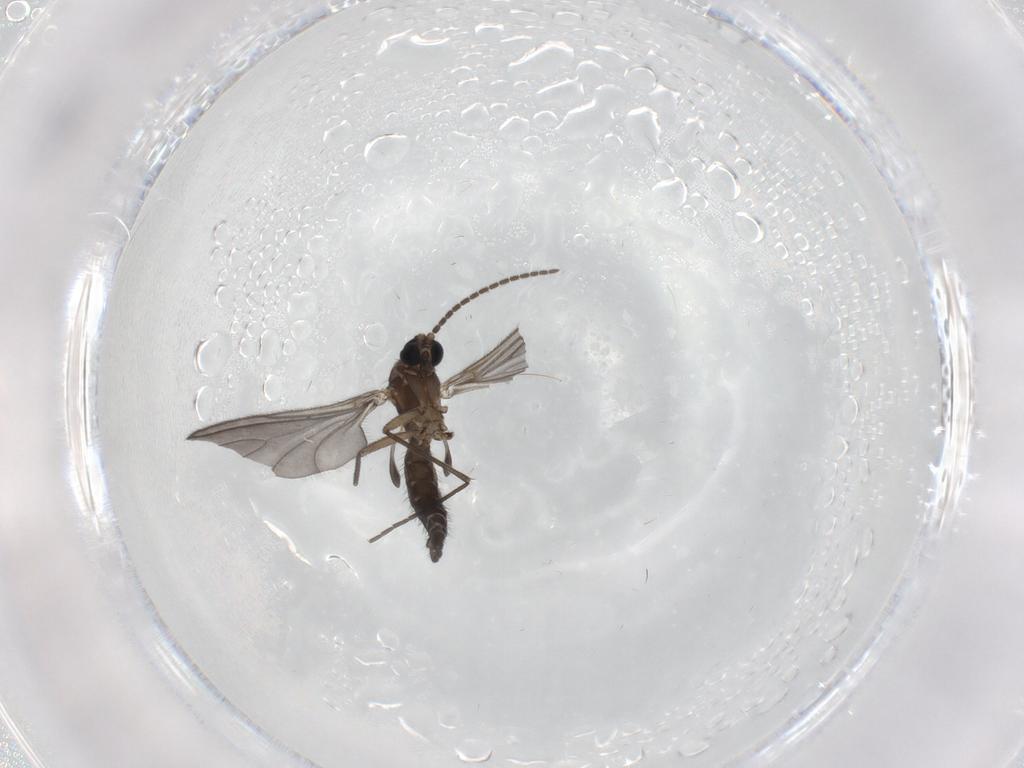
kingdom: Animalia
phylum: Arthropoda
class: Insecta
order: Diptera
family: Sciaridae
